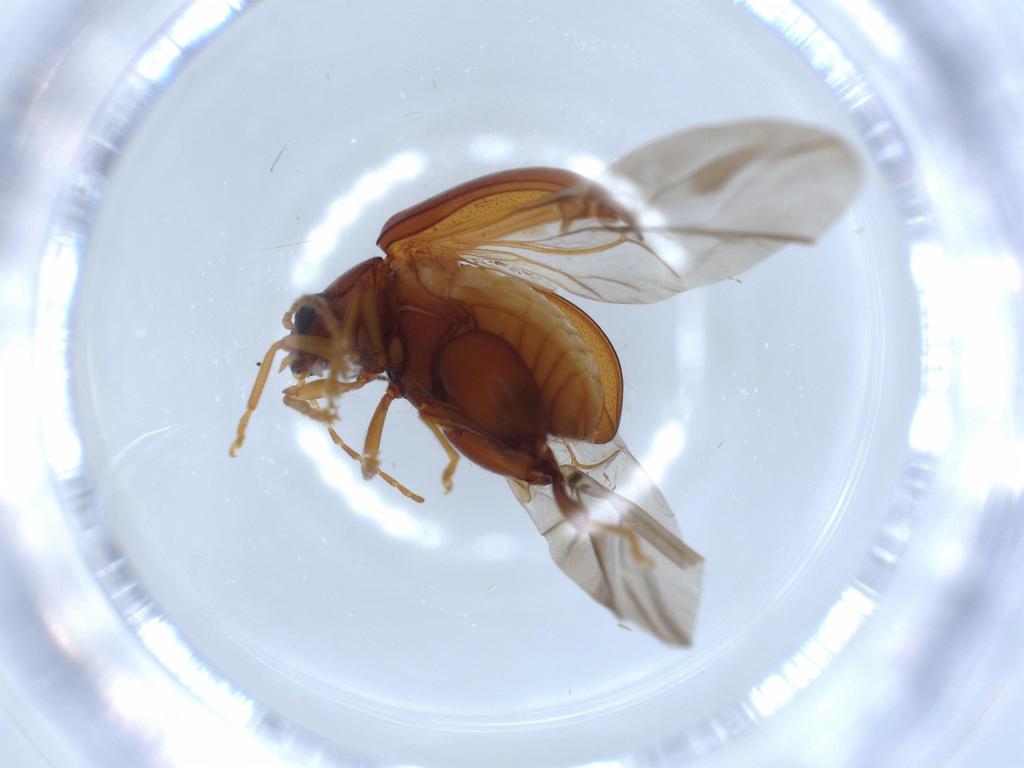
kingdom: Animalia
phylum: Arthropoda
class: Insecta
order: Coleoptera
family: Chrysomelidae
